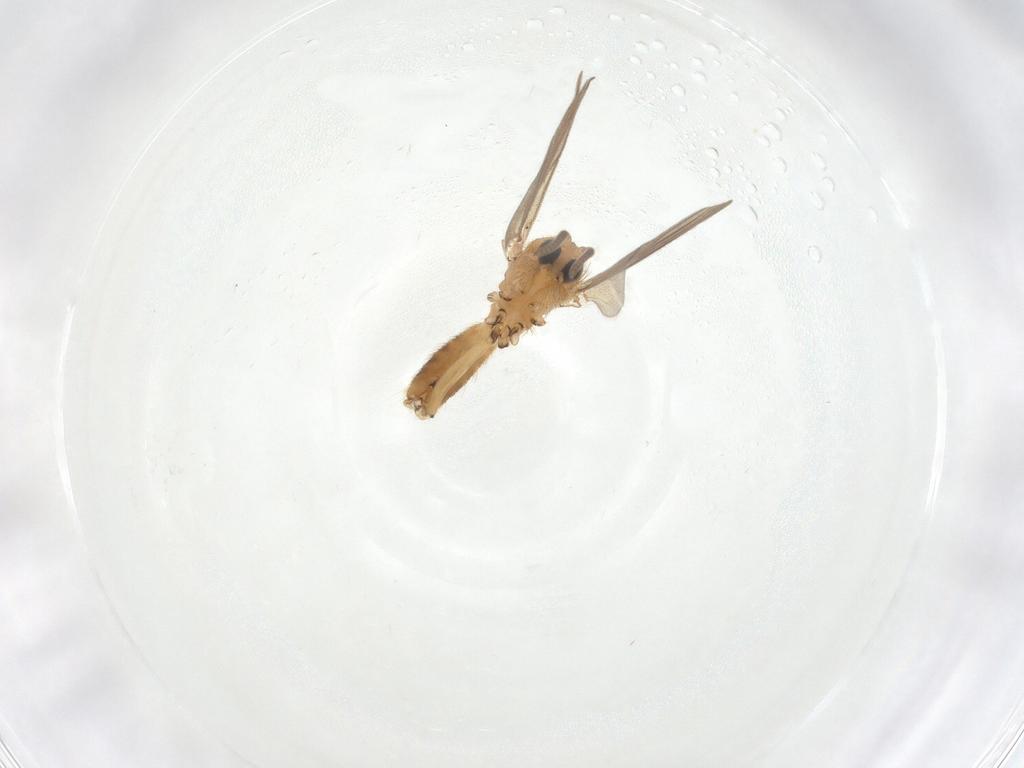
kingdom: Animalia
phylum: Arthropoda
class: Insecta
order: Diptera
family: Mycetophilidae
